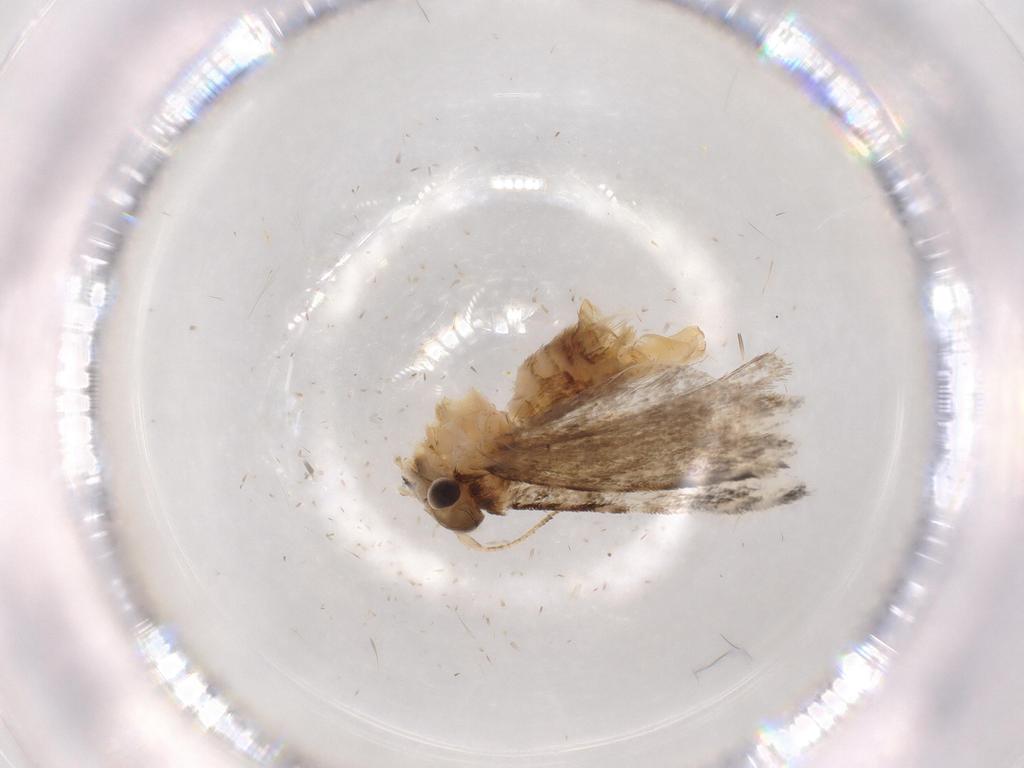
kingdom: Animalia
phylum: Arthropoda
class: Insecta
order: Lepidoptera
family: Tineidae
